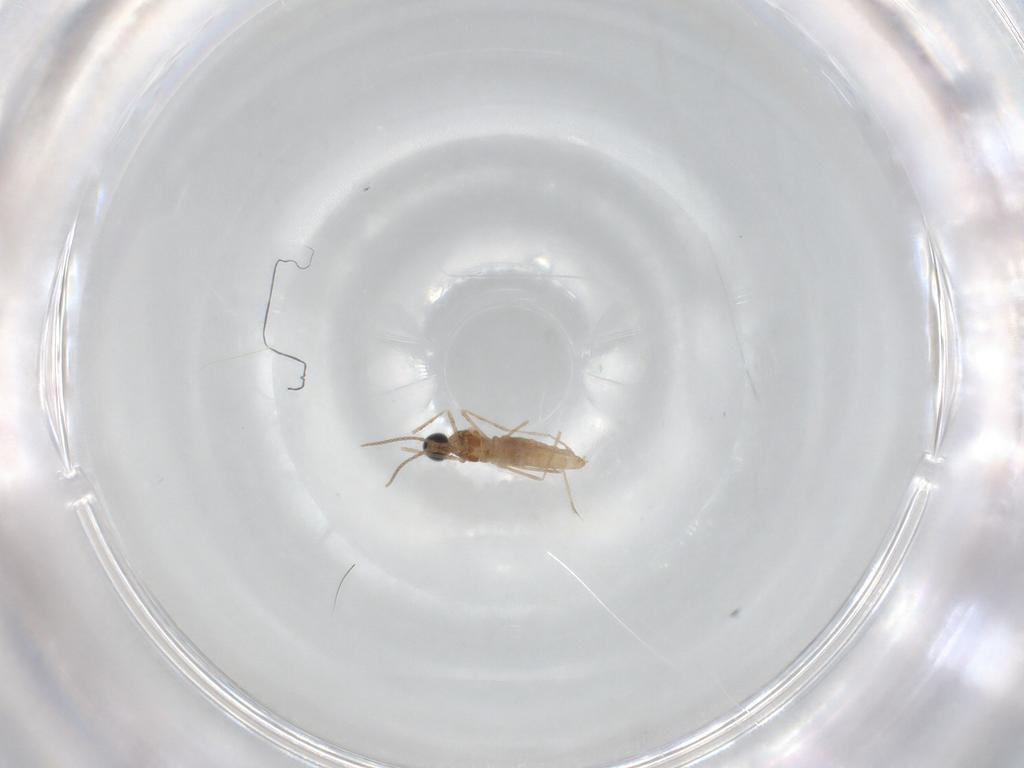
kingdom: Animalia
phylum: Arthropoda
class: Insecta
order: Diptera
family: Cecidomyiidae
